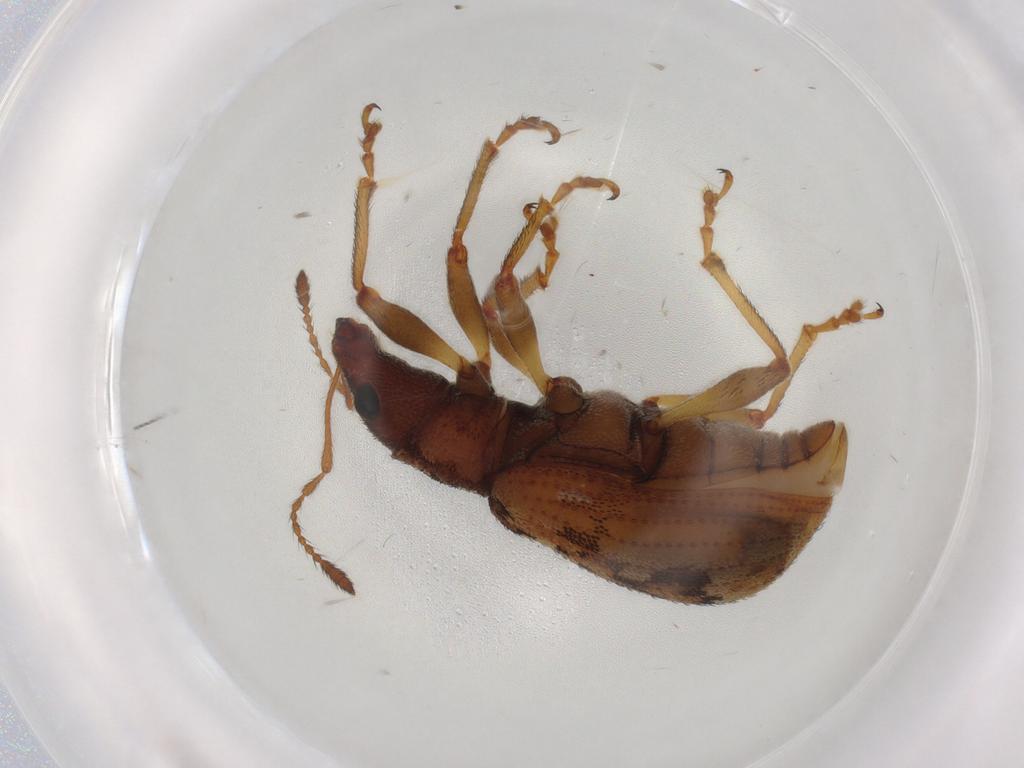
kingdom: Animalia
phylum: Arthropoda
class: Insecta
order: Coleoptera
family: Curculionidae
